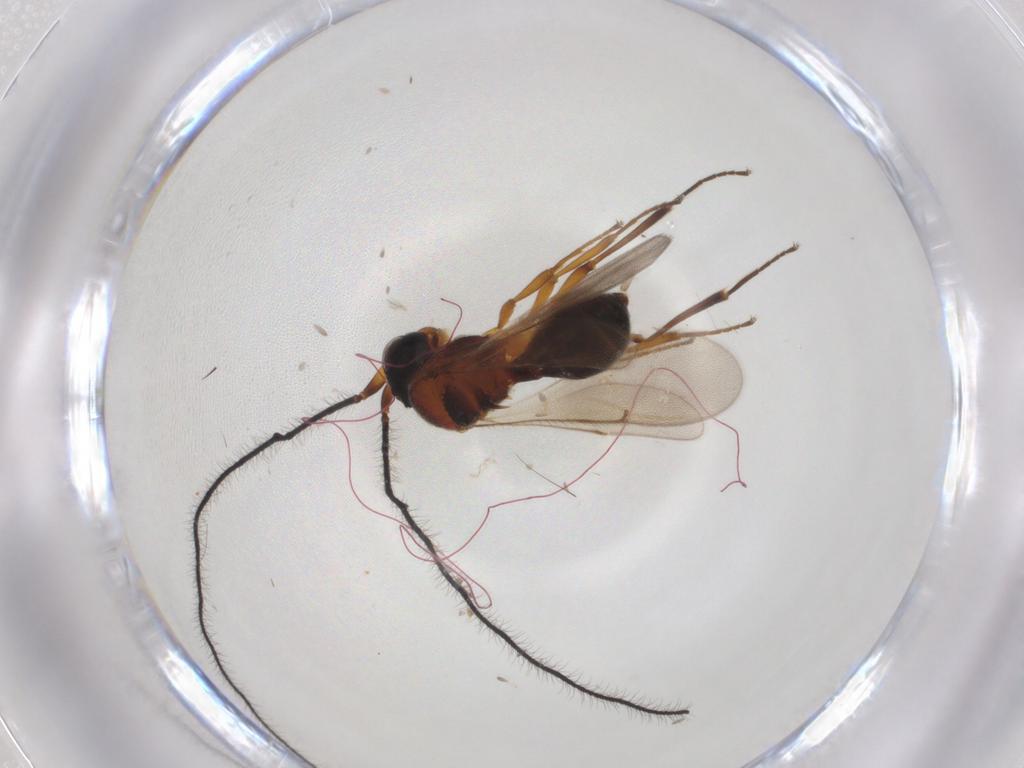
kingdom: Animalia
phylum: Arthropoda
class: Insecta
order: Hymenoptera
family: Scelionidae
